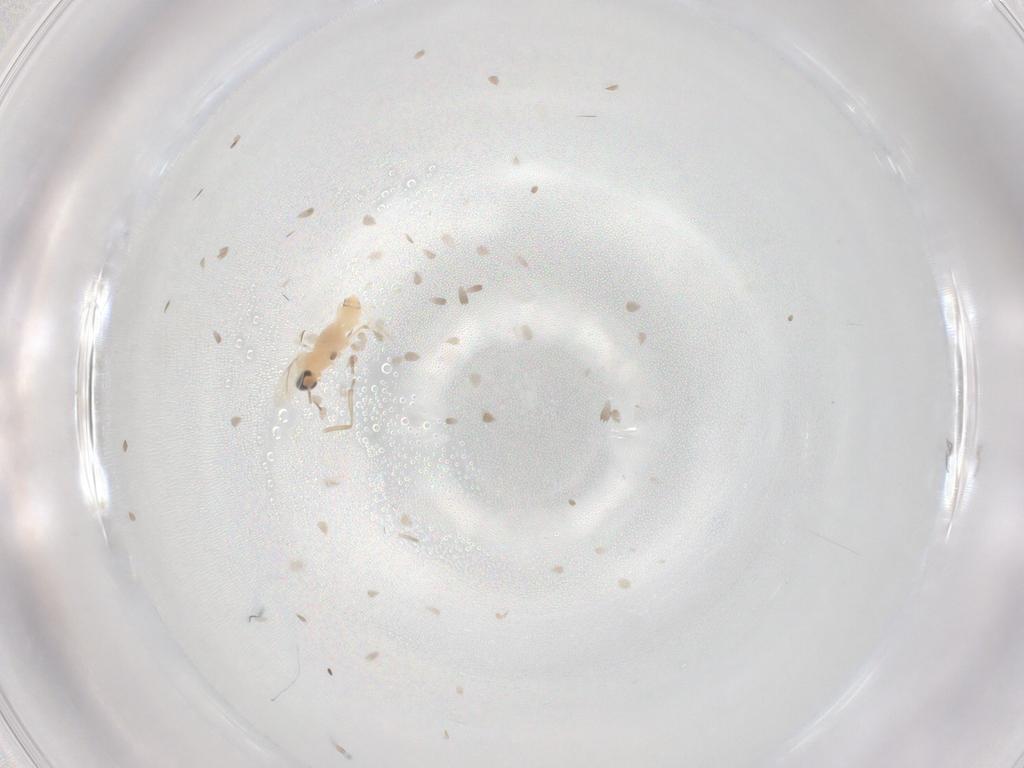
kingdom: Animalia
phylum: Arthropoda
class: Insecta
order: Diptera
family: Cecidomyiidae
